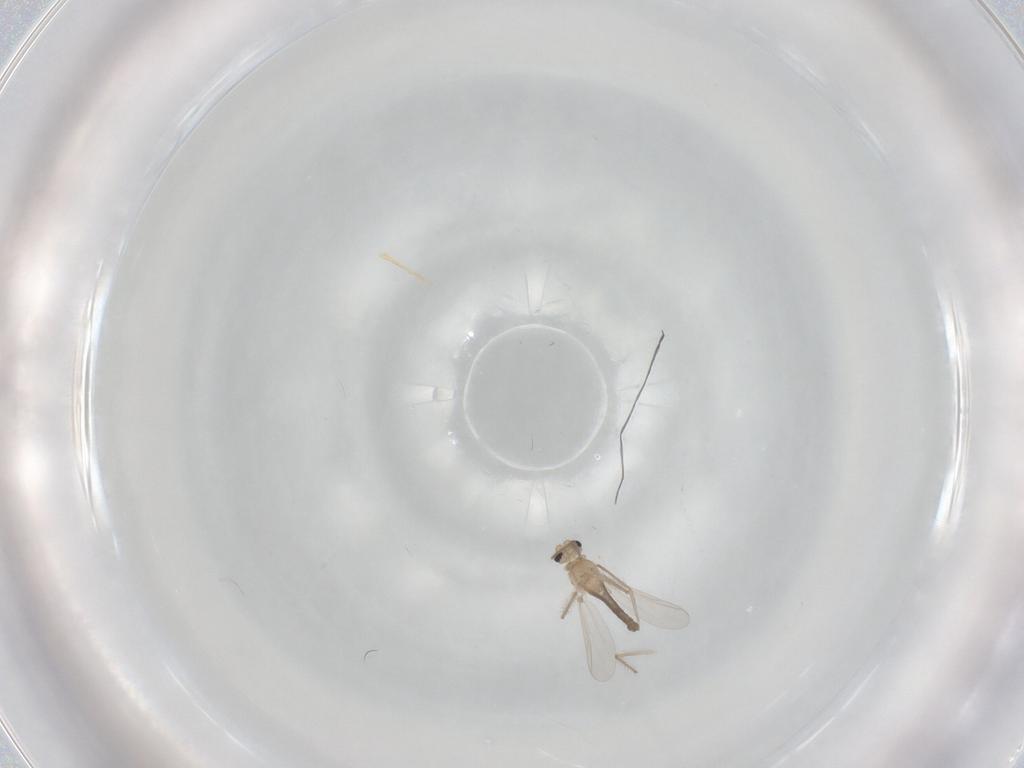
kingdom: Animalia
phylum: Arthropoda
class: Insecta
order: Diptera
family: Chironomidae
